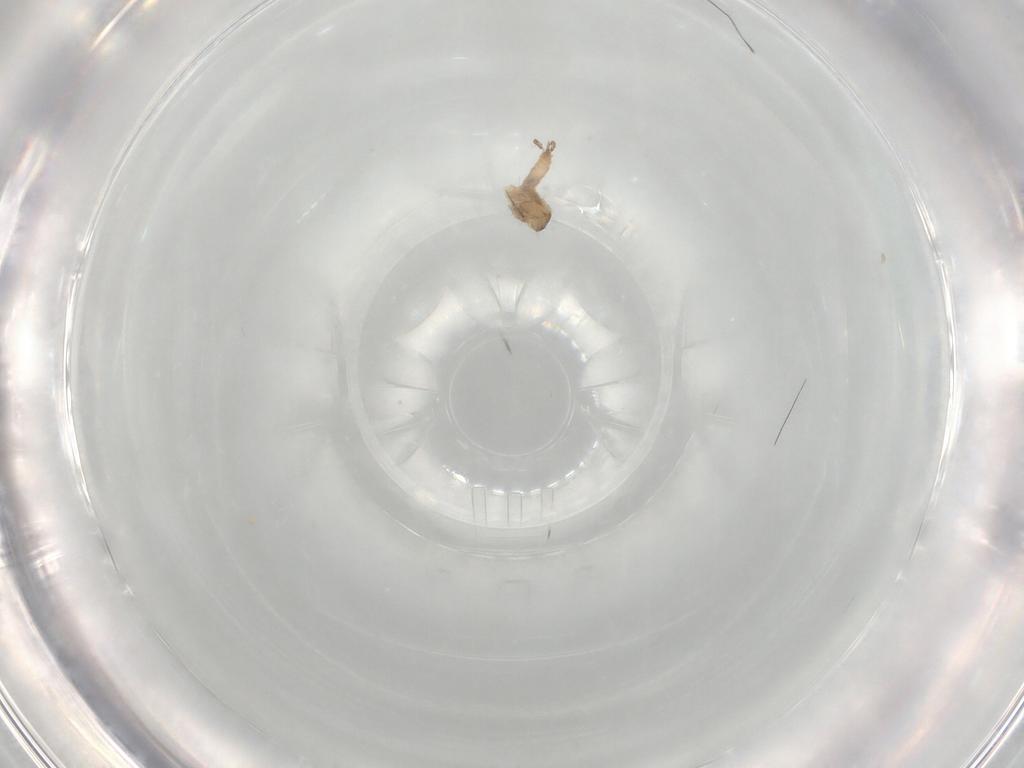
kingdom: Animalia
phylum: Arthropoda
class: Insecta
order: Diptera
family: Cecidomyiidae
